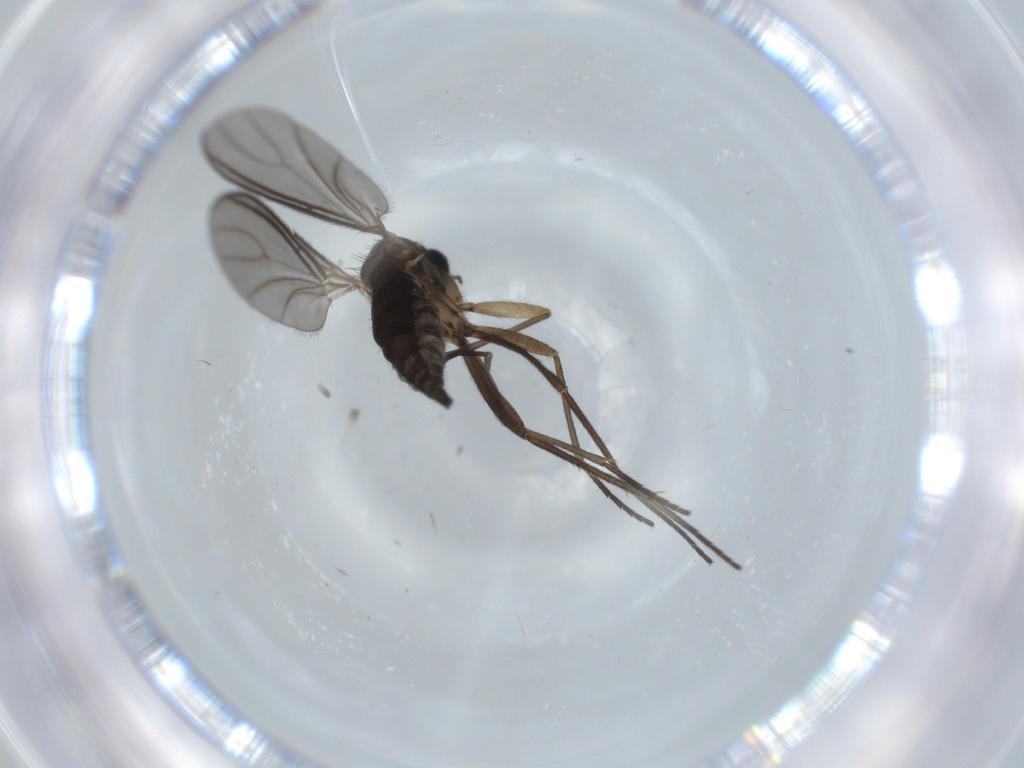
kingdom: Animalia
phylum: Arthropoda
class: Insecta
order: Diptera
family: Sciaridae
